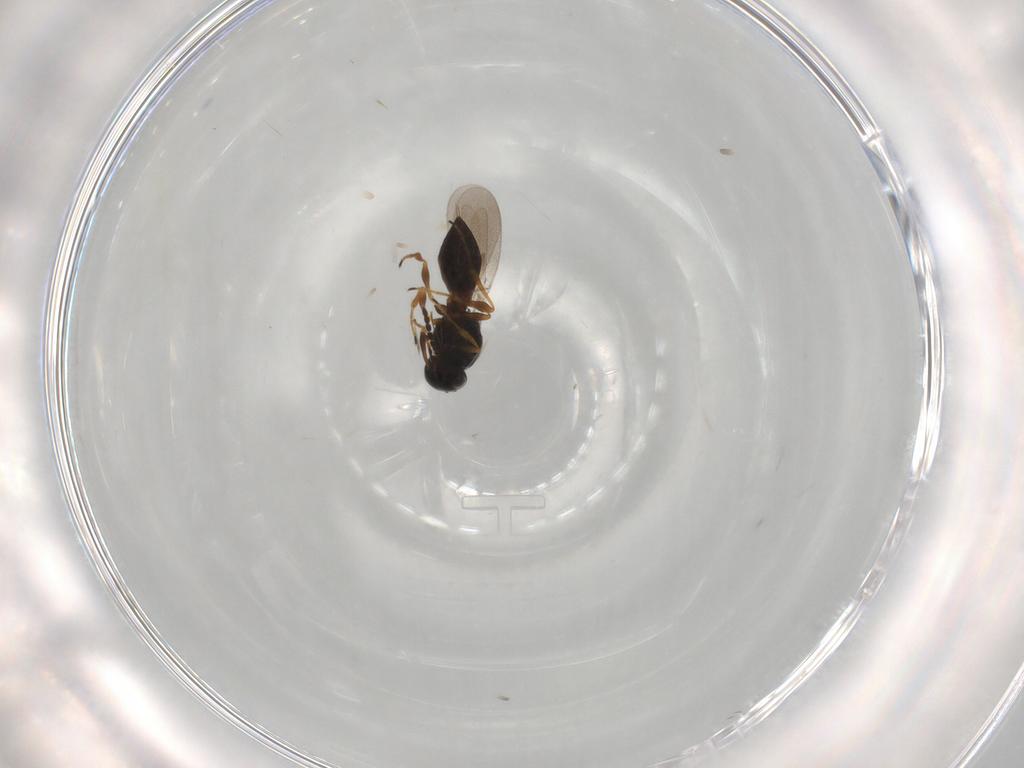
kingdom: Animalia
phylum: Arthropoda
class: Insecta
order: Hymenoptera
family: Platygastridae
